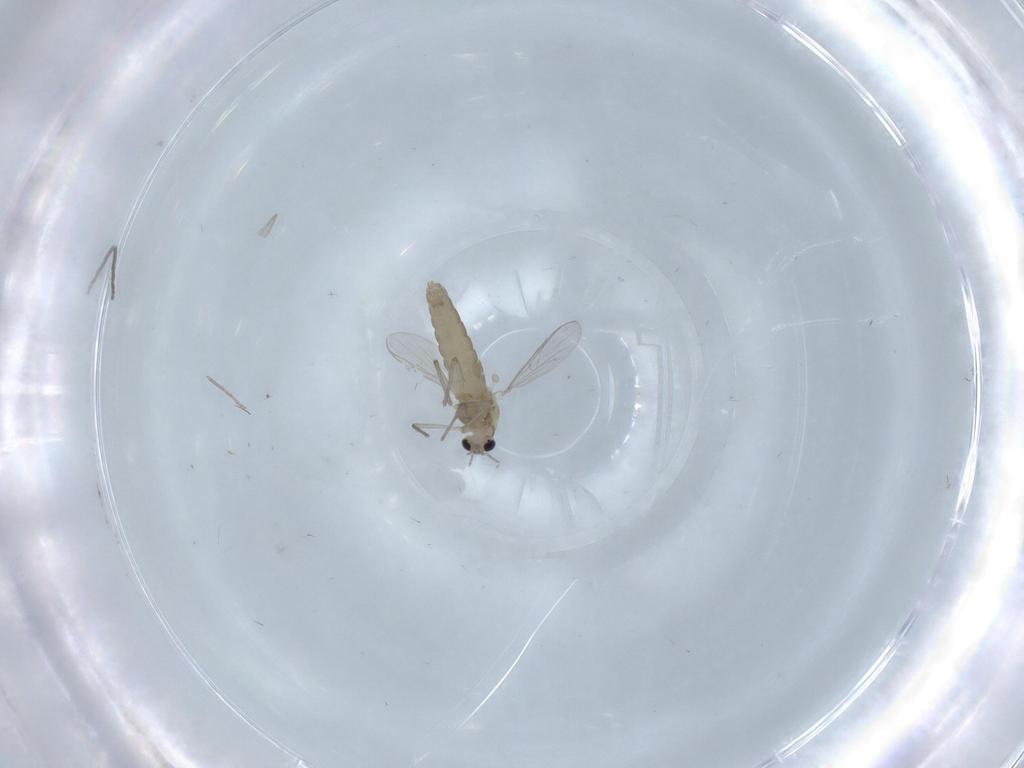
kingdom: Animalia
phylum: Arthropoda
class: Insecta
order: Diptera
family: Chironomidae
